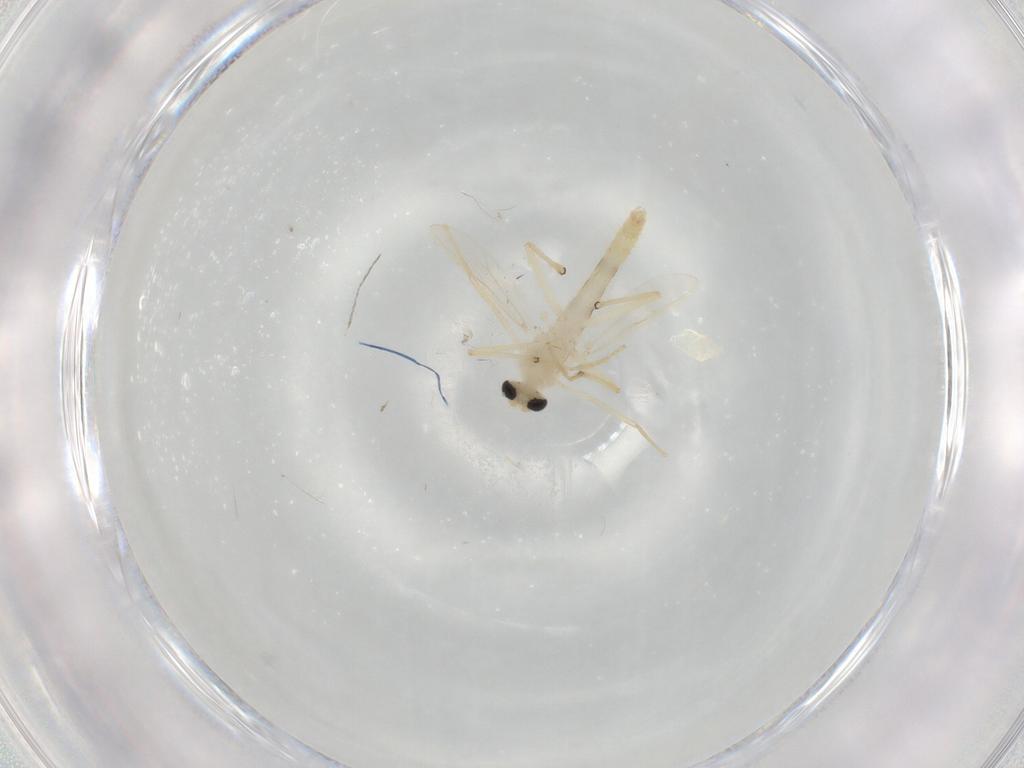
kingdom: Animalia
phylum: Arthropoda
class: Insecta
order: Diptera
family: Chironomidae
